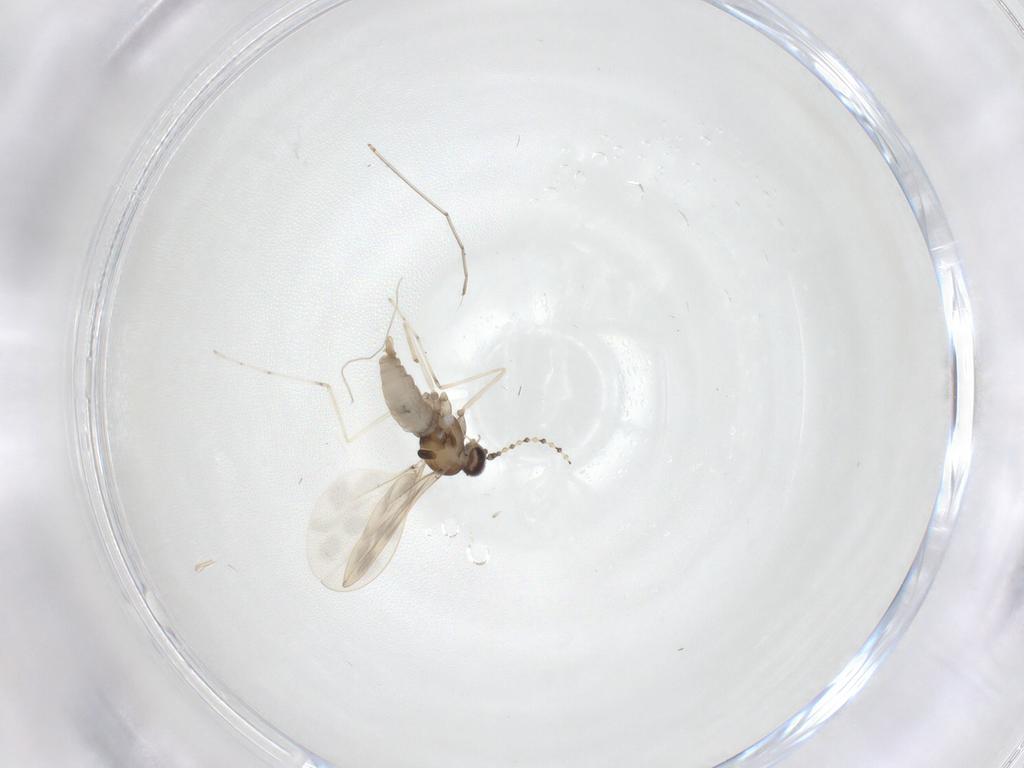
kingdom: Animalia
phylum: Arthropoda
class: Insecta
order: Diptera
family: Cecidomyiidae
